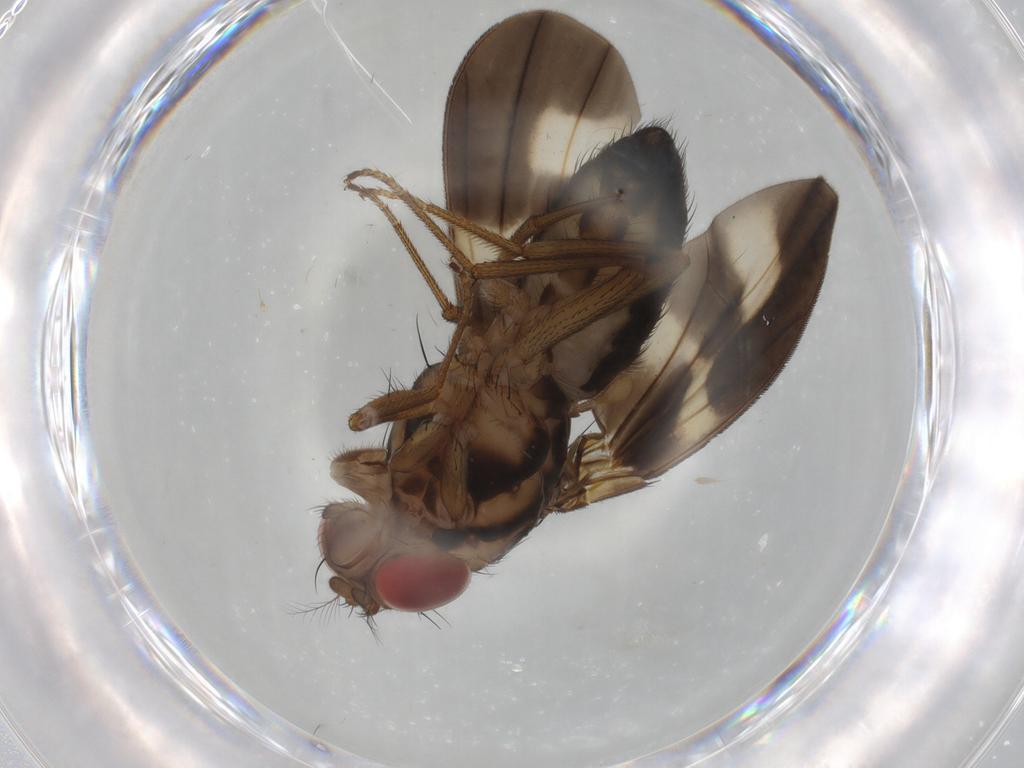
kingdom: Animalia
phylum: Arthropoda
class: Insecta
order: Diptera
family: Drosophilidae
